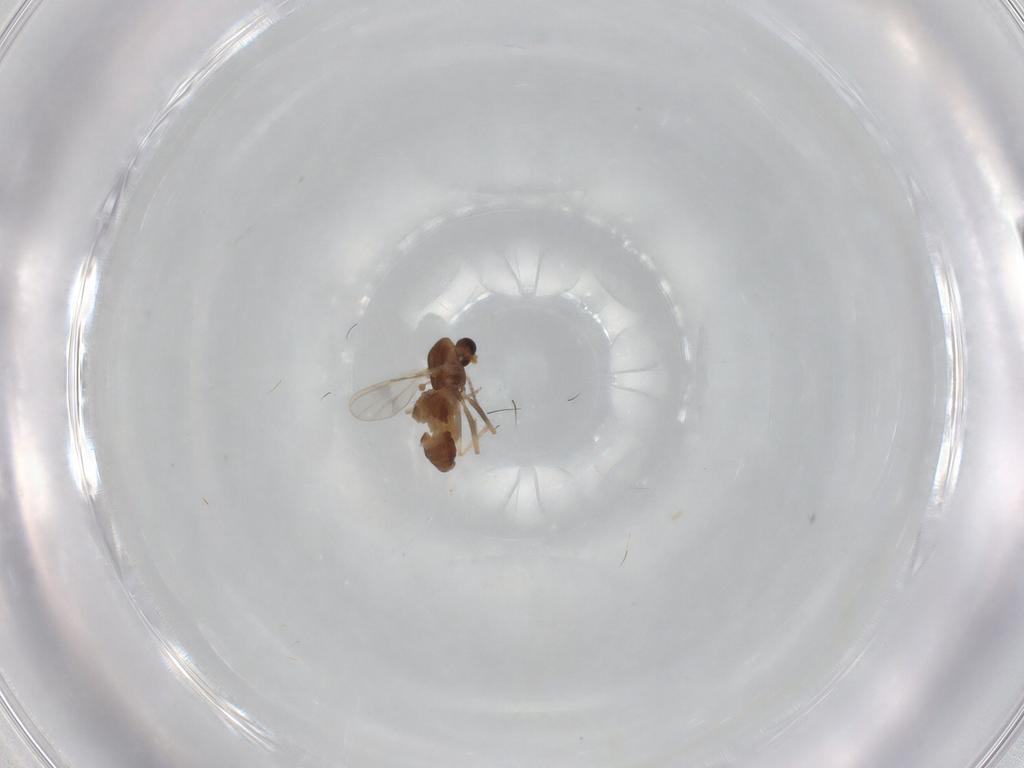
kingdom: Animalia
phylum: Arthropoda
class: Insecta
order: Diptera
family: Chironomidae
